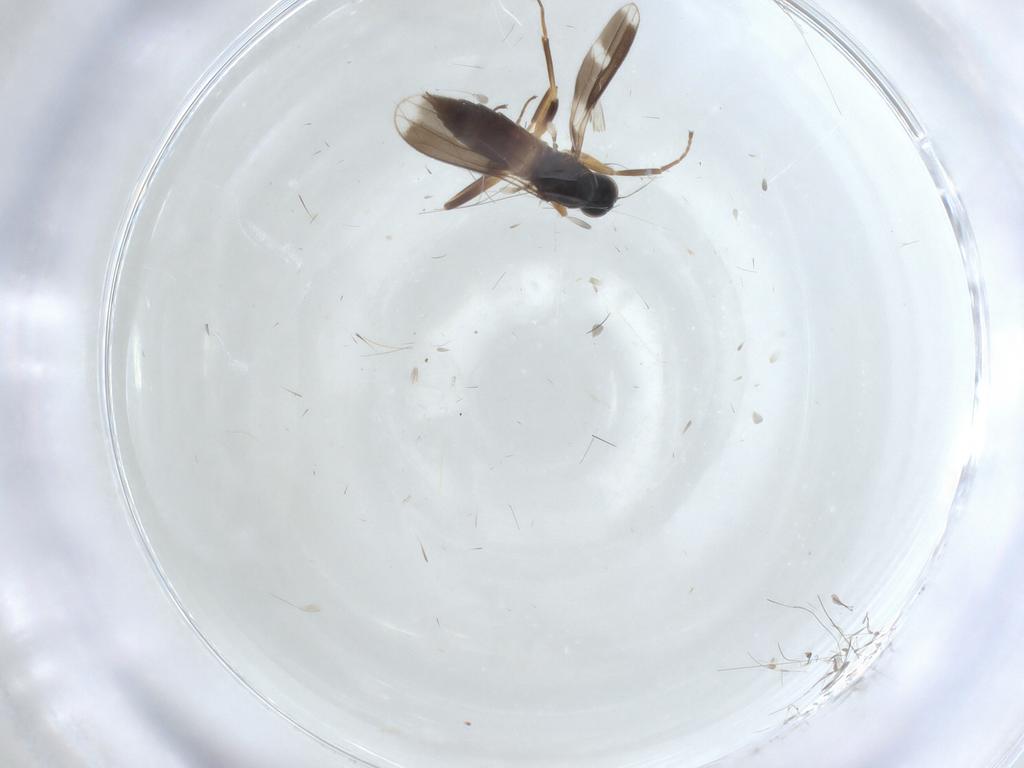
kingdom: Animalia
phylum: Arthropoda
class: Insecta
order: Diptera
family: Hybotidae
